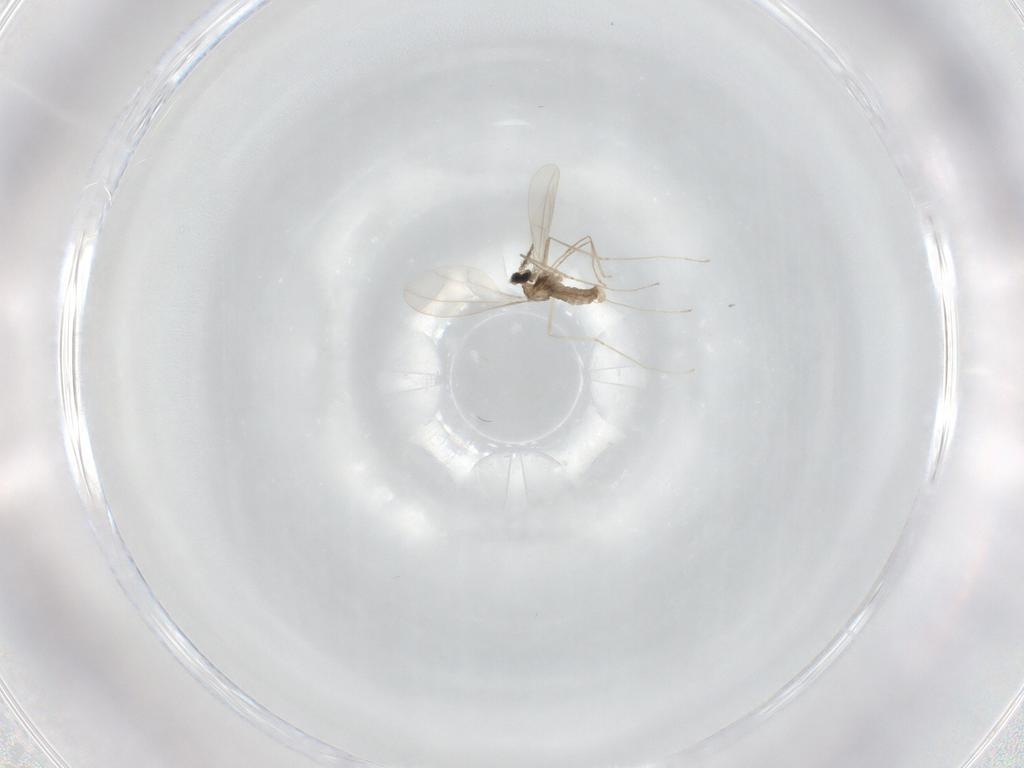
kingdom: Animalia
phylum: Arthropoda
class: Insecta
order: Diptera
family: Cecidomyiidae
